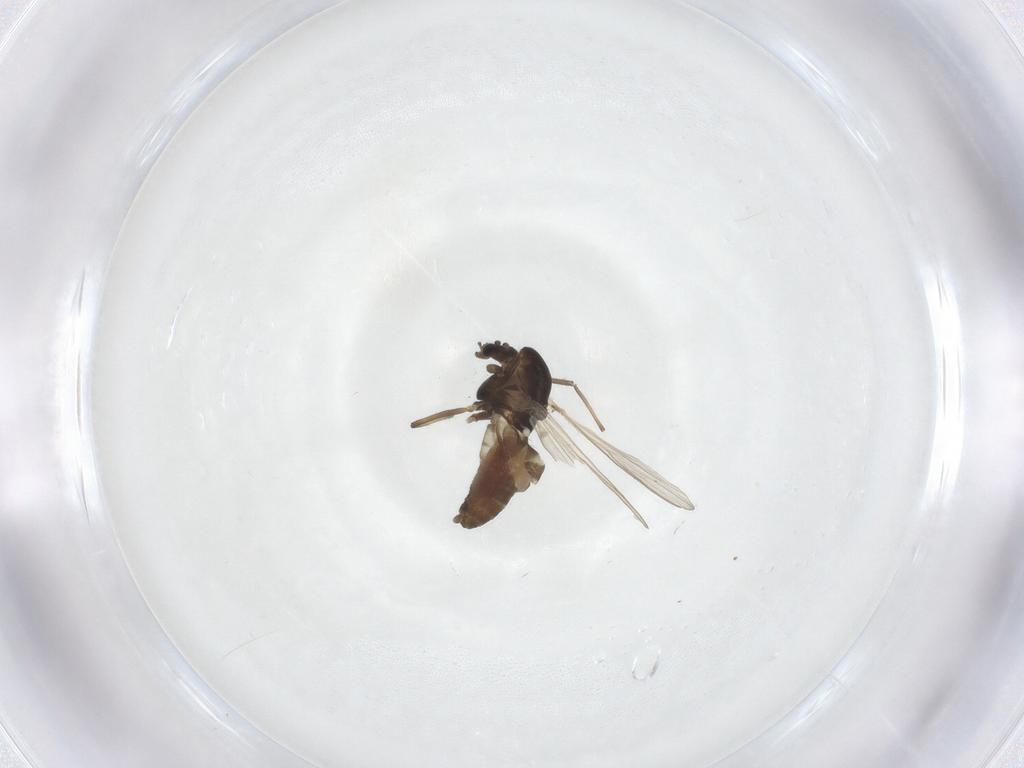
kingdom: Animalia
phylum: Arthropoda
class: Insecta
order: Diptera
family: Chironomidae
